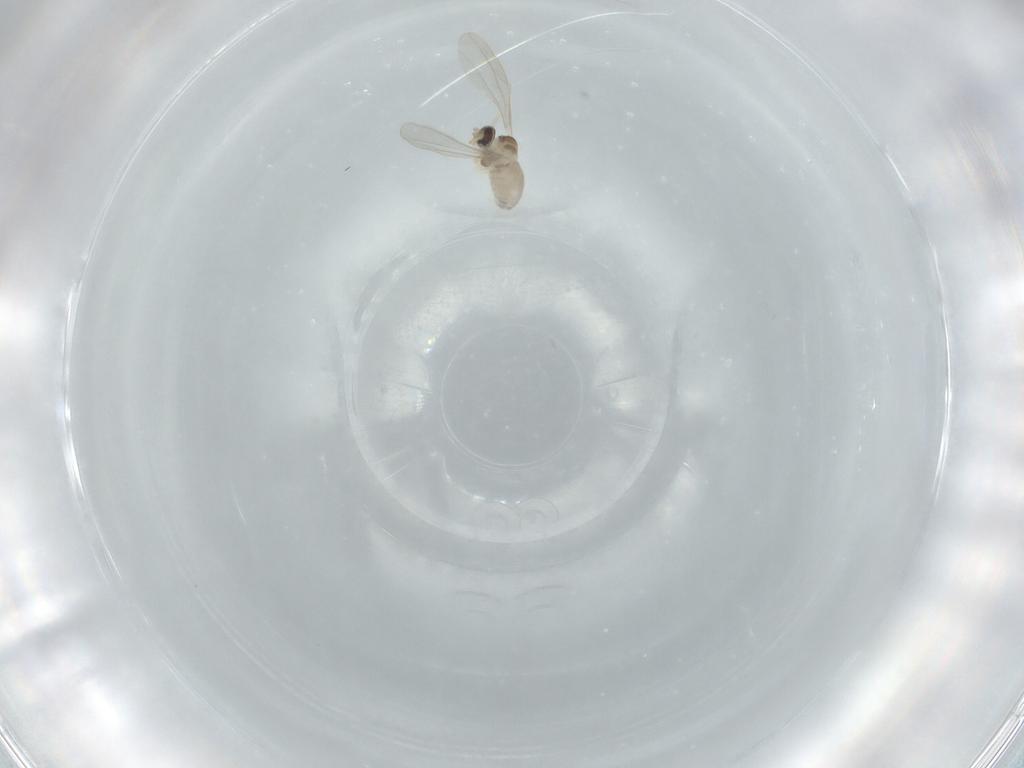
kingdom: Animalia
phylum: Arthropoda
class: Insecta
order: Diptera
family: Cecidomyiidae
